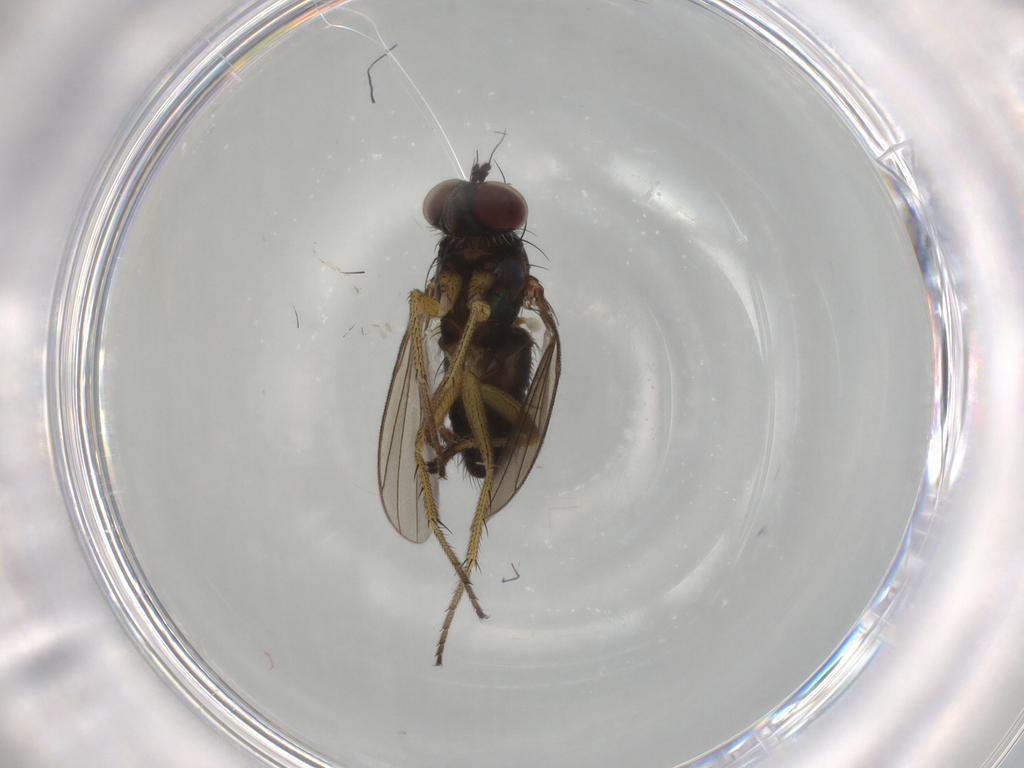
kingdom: Animalia
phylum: Arthropoda
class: Insecta
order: Diptera
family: Dolichopodidae
